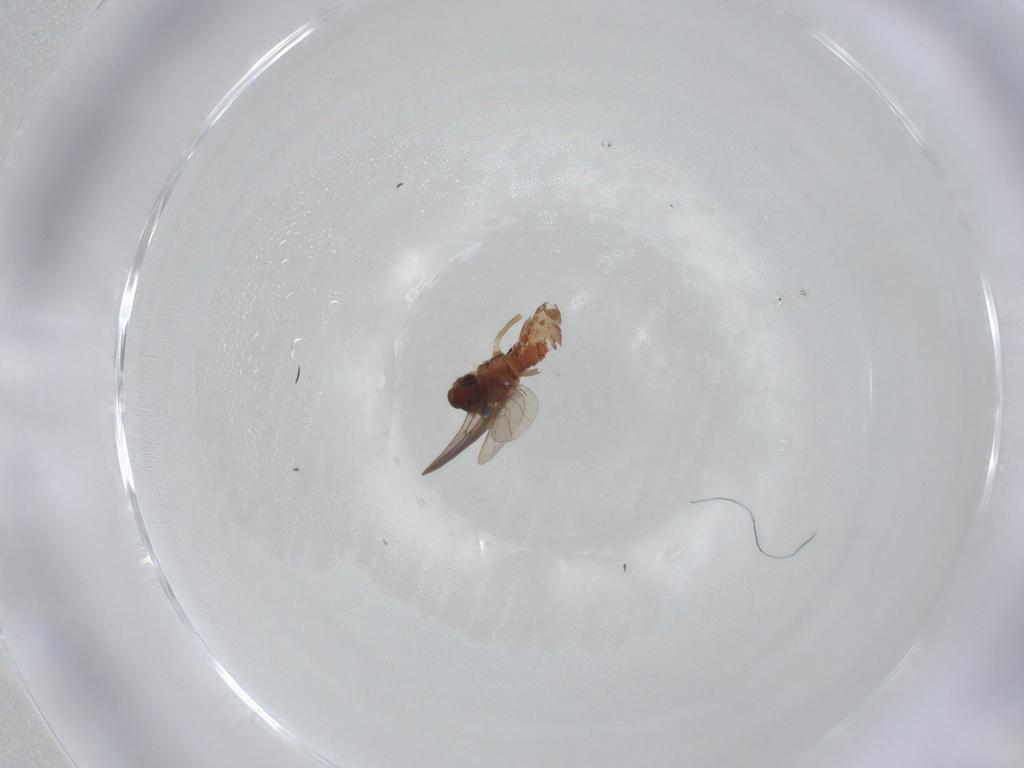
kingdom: Animalia
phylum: Arthropoda
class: Insecta
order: Psocodea
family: Lepidopsocidae
